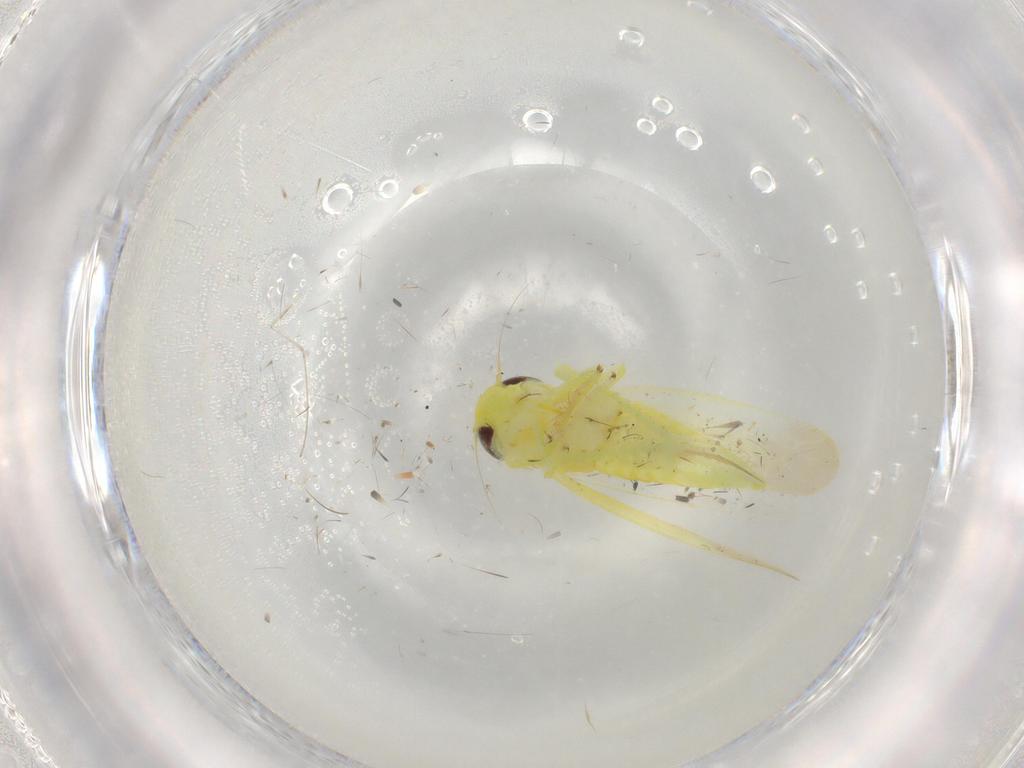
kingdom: Animalia
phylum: Arthropoda
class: Insecta
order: Hemiptera
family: Cicadellidae
